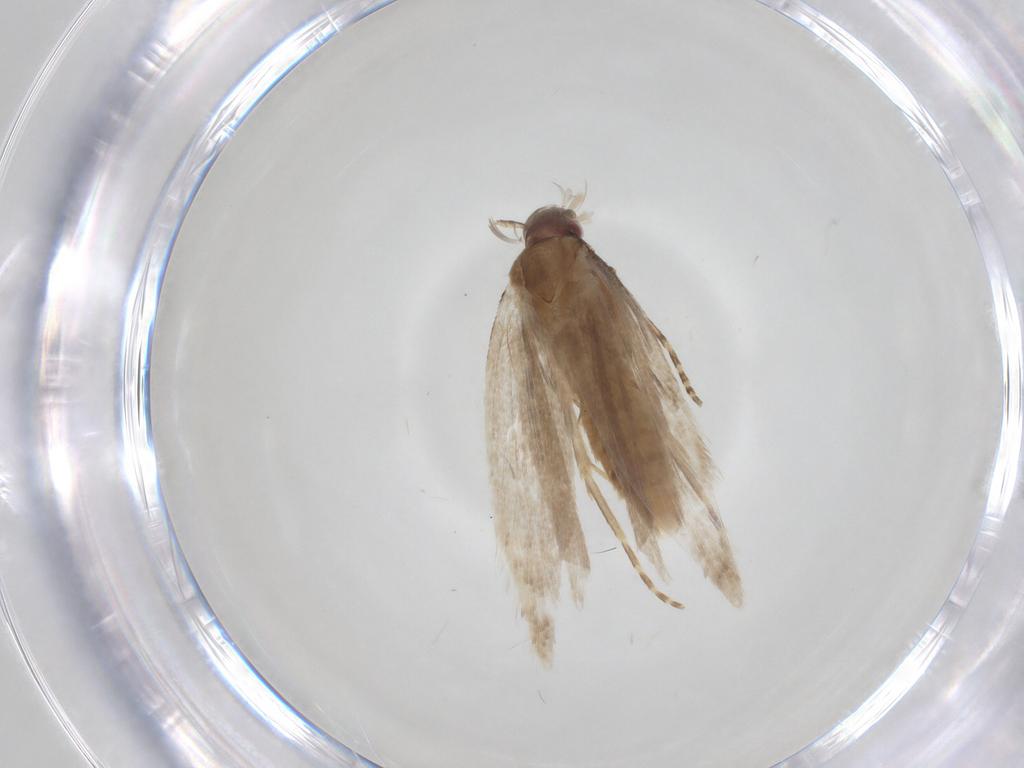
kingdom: Animalia
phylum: Arthropoda
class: Insecta
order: Lepidoptera
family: Gelechiidae
